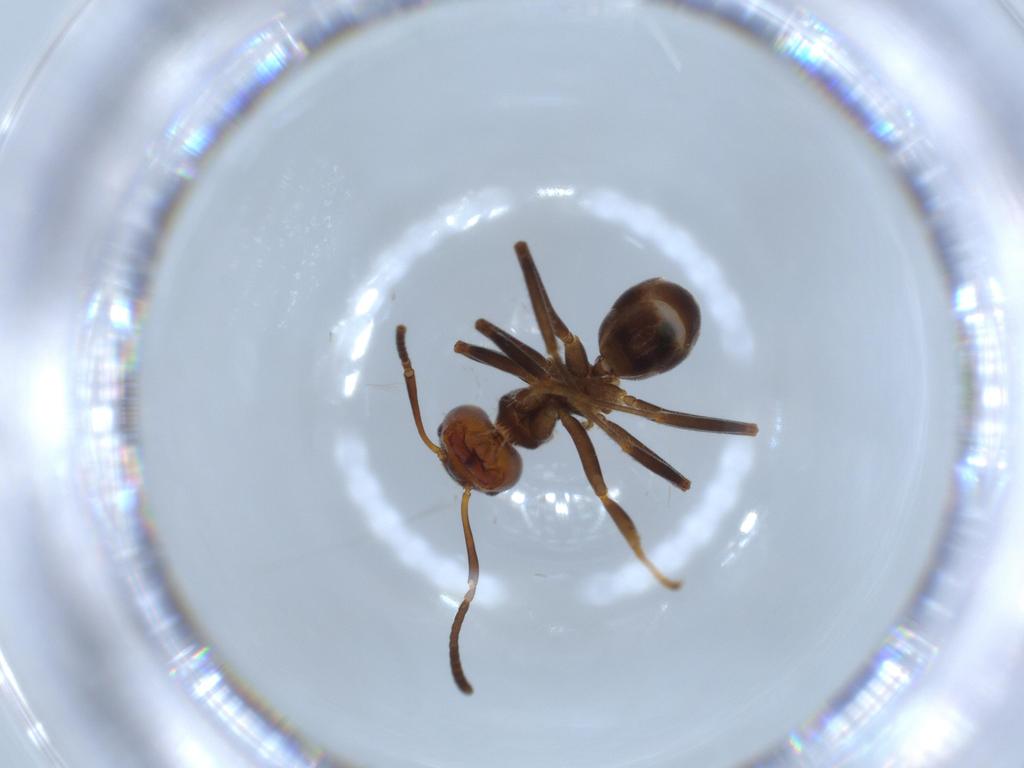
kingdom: Animalia
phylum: Arthropoda
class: Insecta
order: Hymenoptera
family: Formicidae
